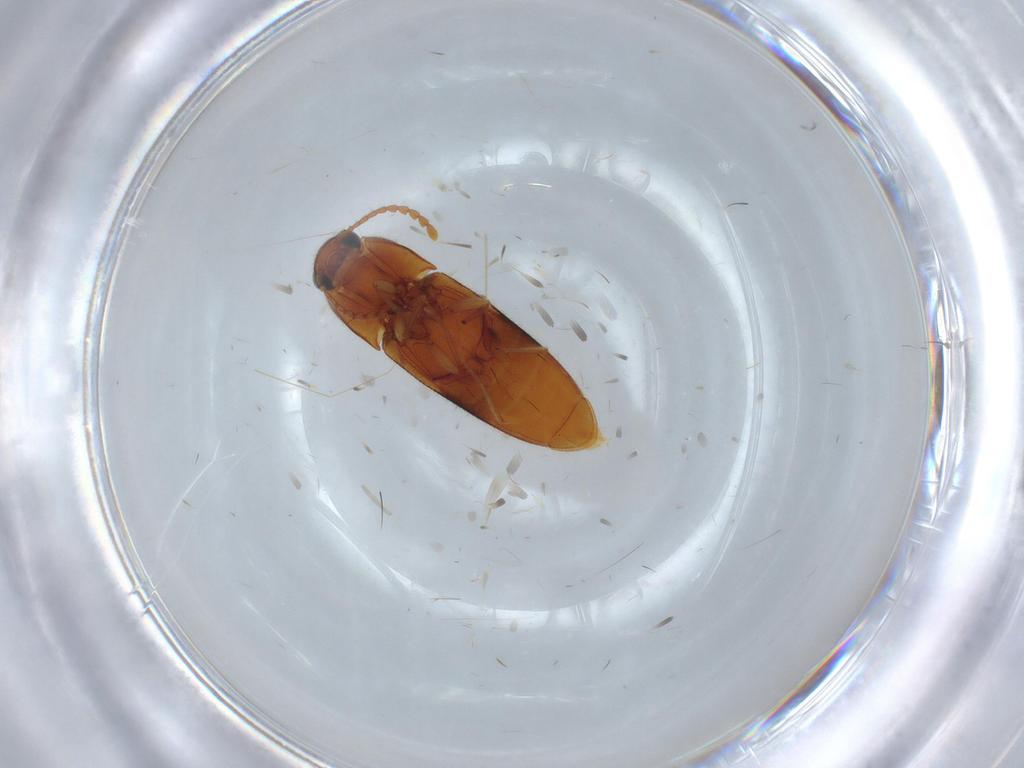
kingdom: Animalia
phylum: Arthropoda
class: Insecta
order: Coleoptera
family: Elateridae
